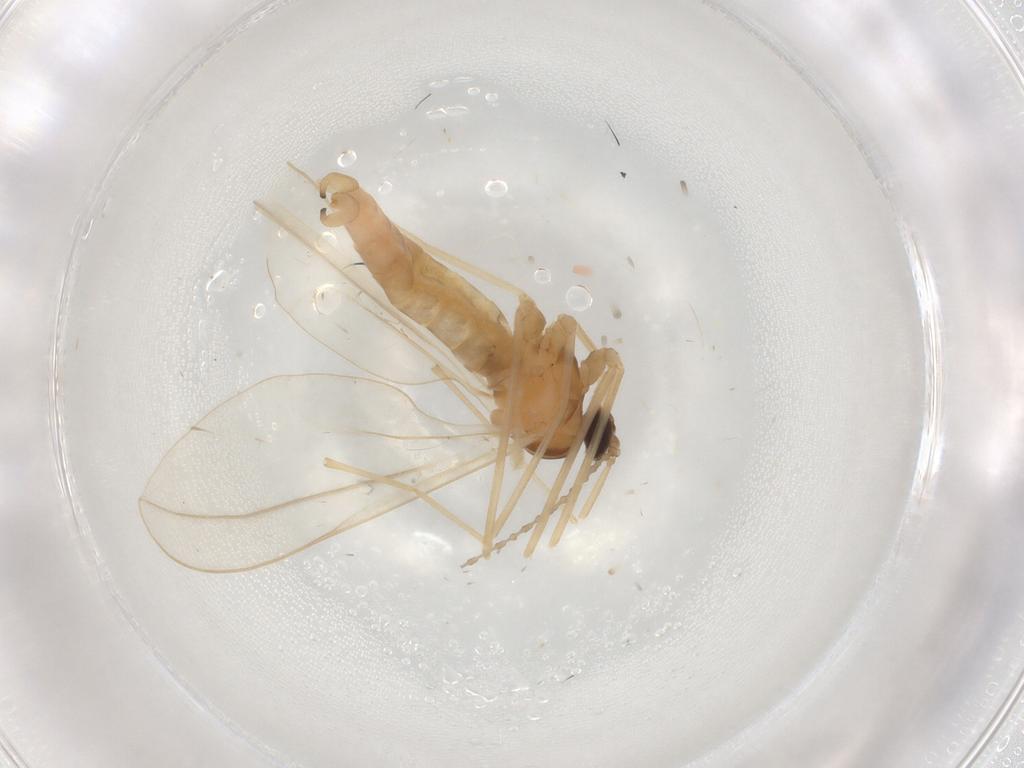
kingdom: Animalia
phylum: Arthropoda
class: Insecta
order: Diptera
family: Cecidomyiidae
